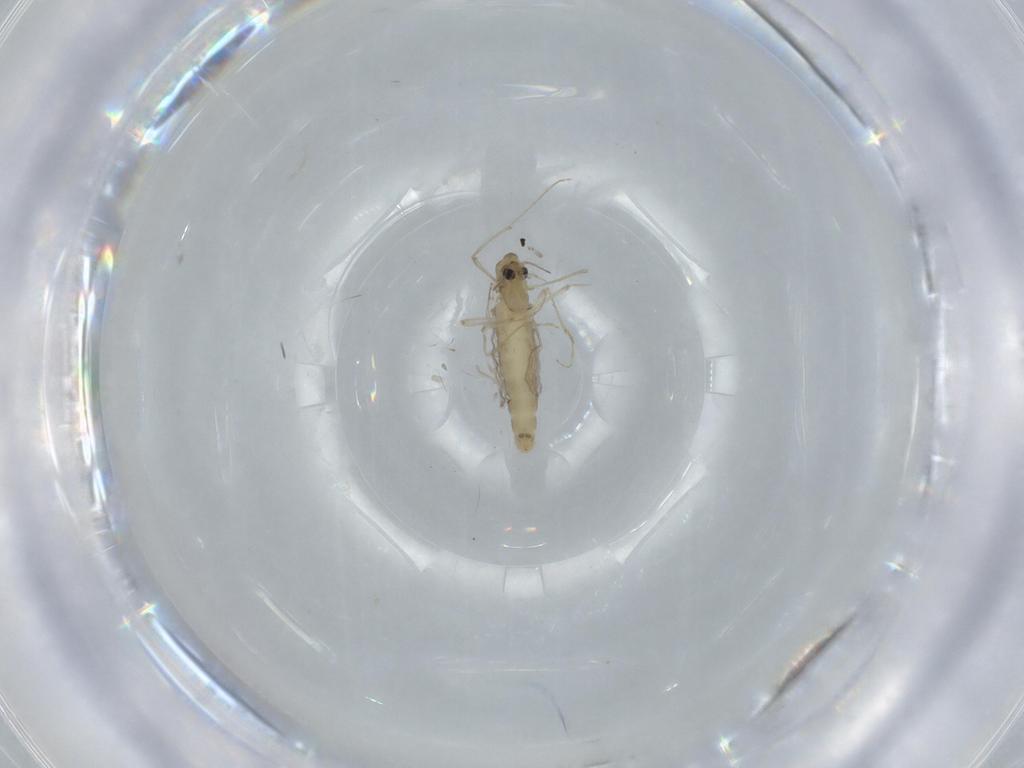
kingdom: Animalia
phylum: Arthropoda
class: Insecta
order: Diptera
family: Chironomidae
